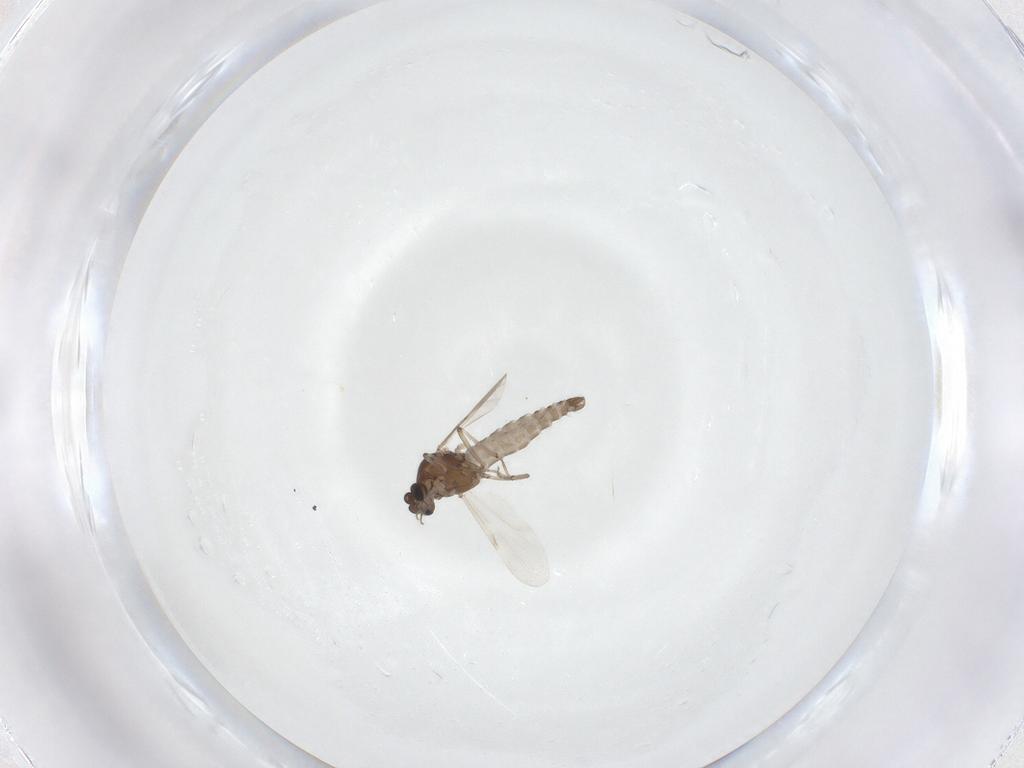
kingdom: Animalia
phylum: Arthropoda
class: Insecta
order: Diptera
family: Ceratopogonidae
